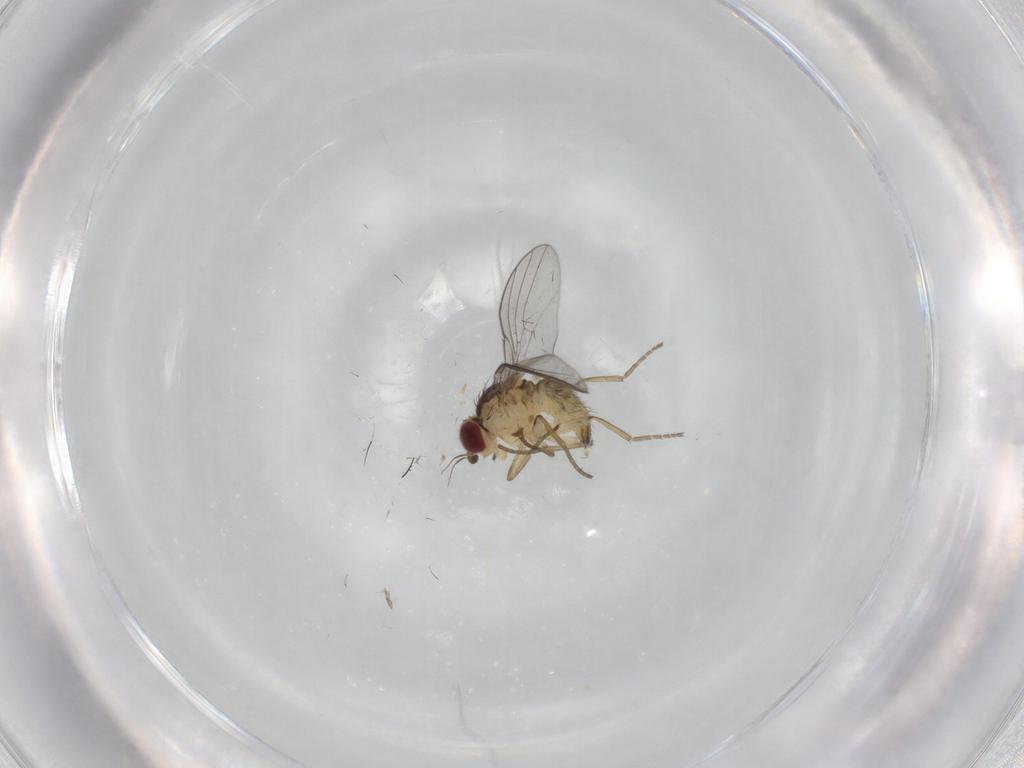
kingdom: Animalia
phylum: Arthropoda
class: Insecta
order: Diptera
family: Agromyzidae
